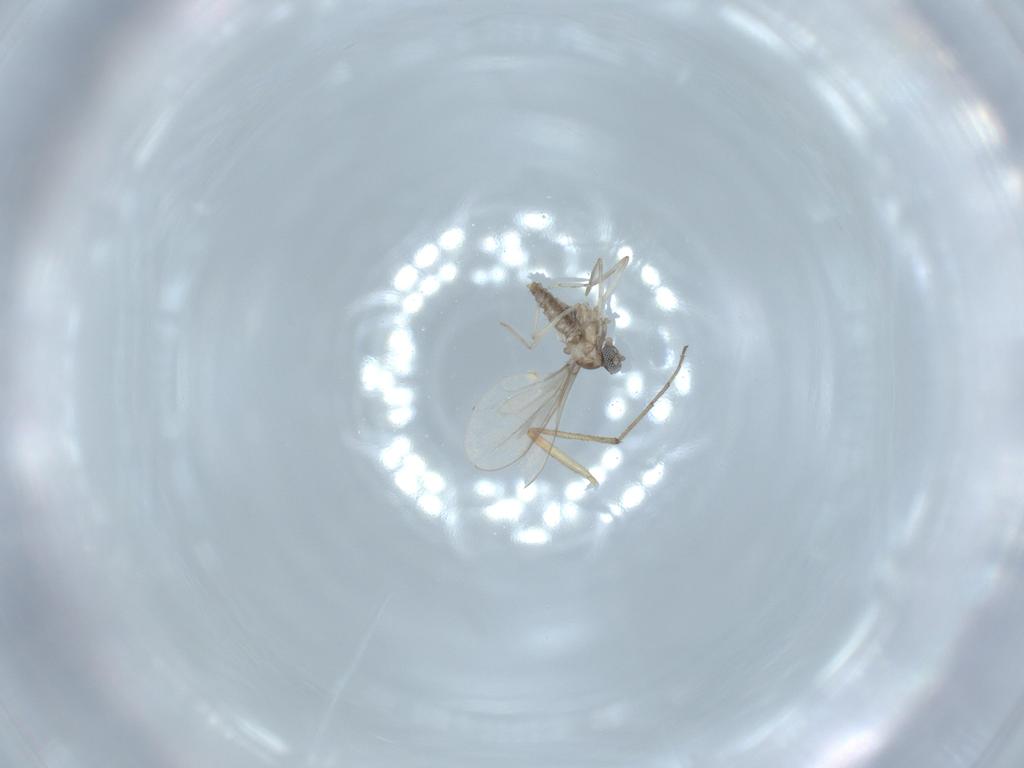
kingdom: Animalia
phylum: Arthropoda
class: Insecta
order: Diptera
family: Cecidomyiidae
